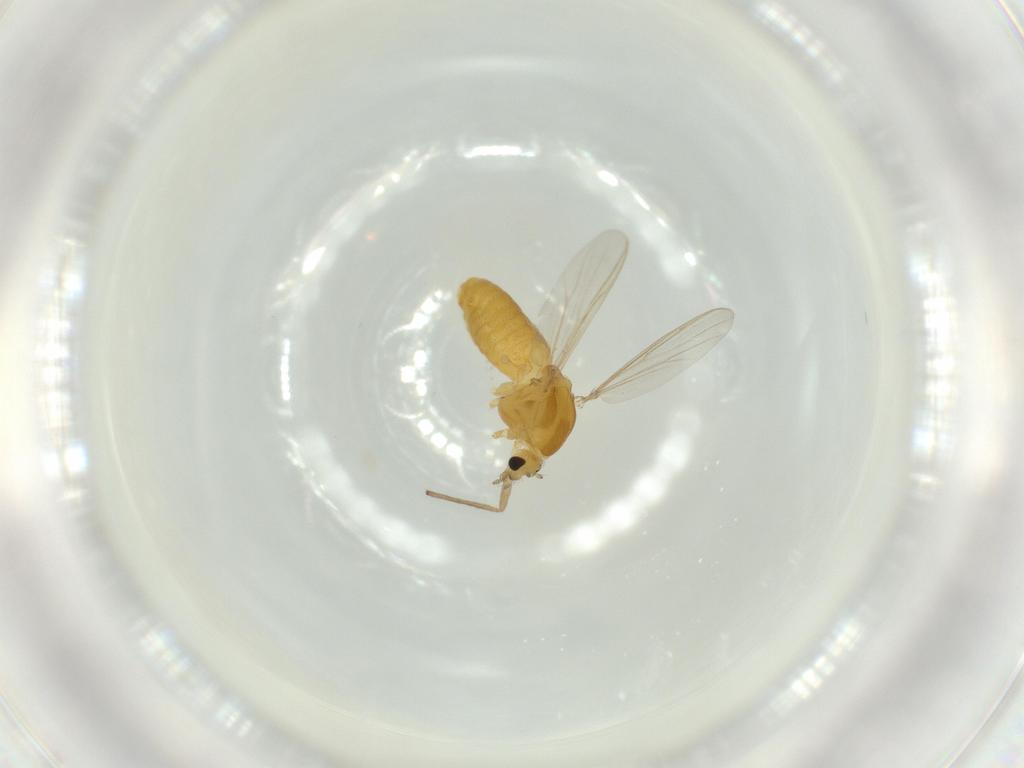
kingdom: Animalia
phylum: Arthropoda
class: Insecta
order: Diptera
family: Chironomidae
